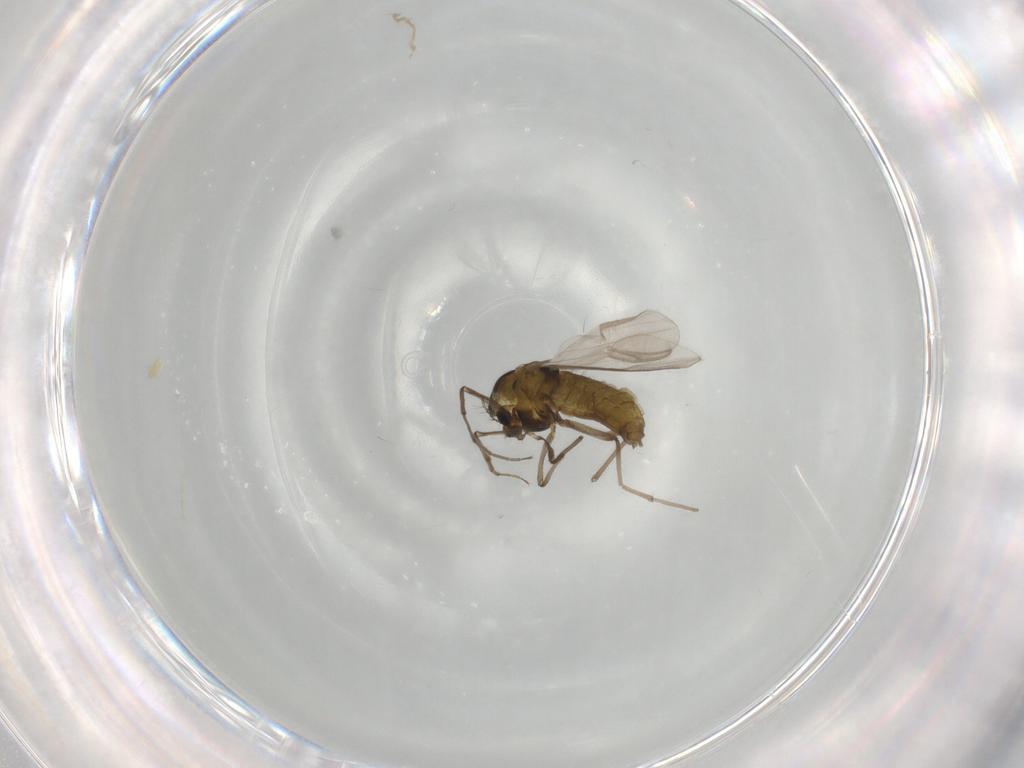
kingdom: Animalia
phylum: Arthropoda
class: Insecta
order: Diptera
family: Chironomidae
